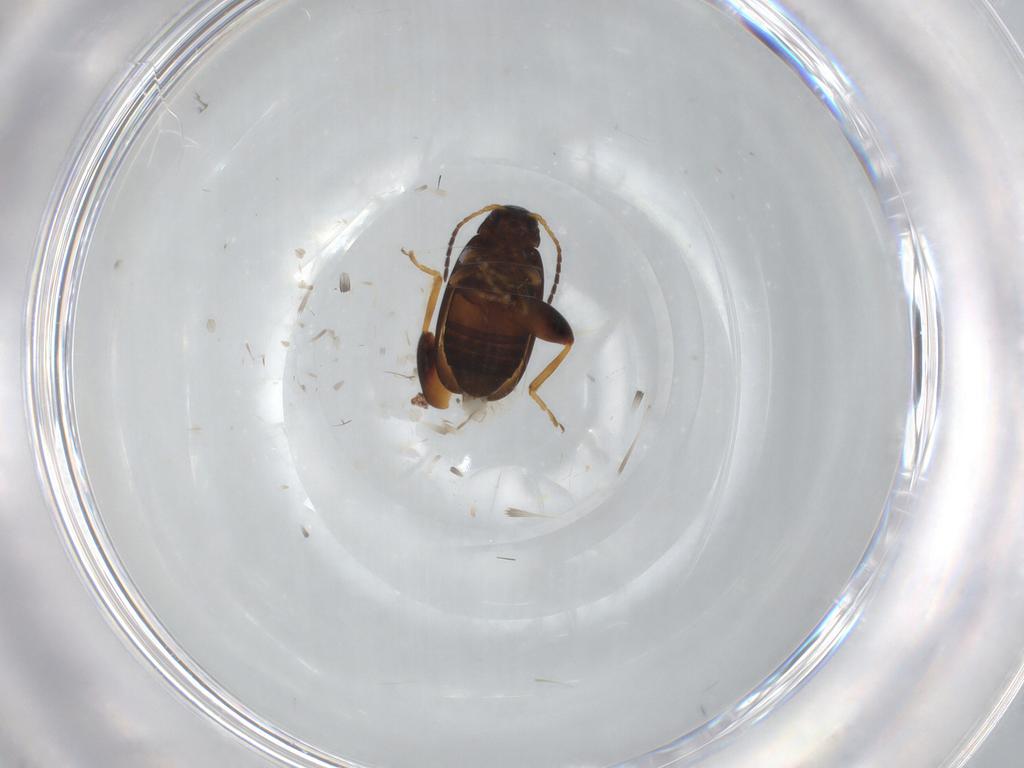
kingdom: Animalia
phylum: Arthropoda
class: Insecta
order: Coleoptera
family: Chrysomelidae
